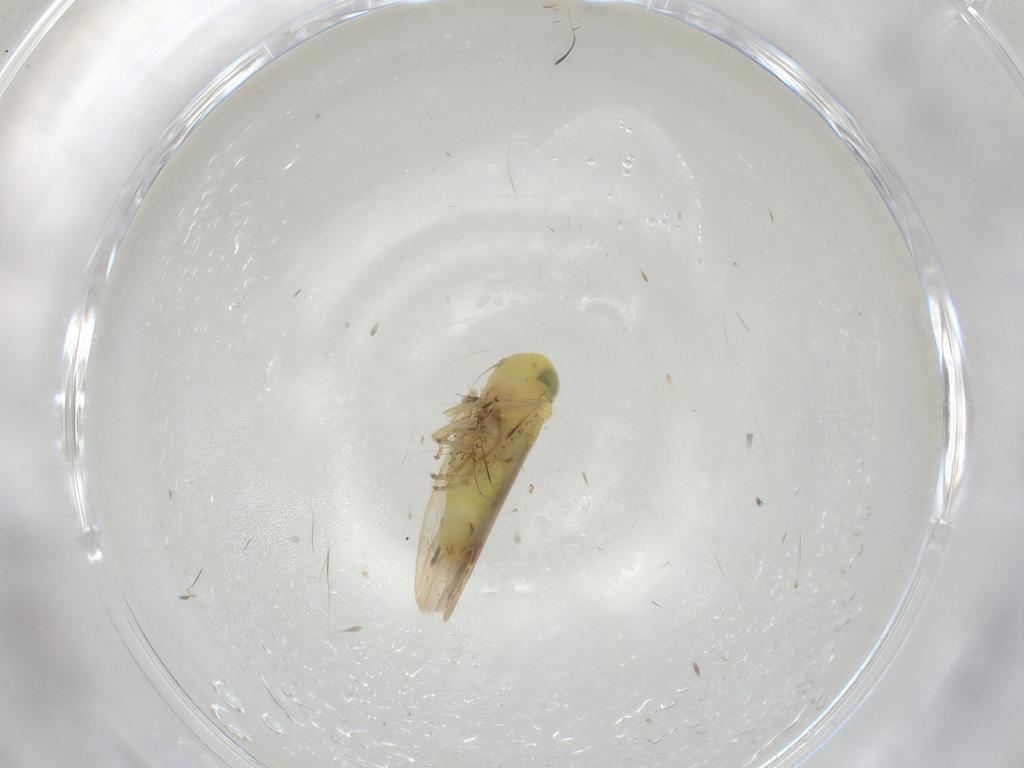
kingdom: Animalia
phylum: Arthropoda
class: Insecta
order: Hemiptera
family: Cicadellidae
